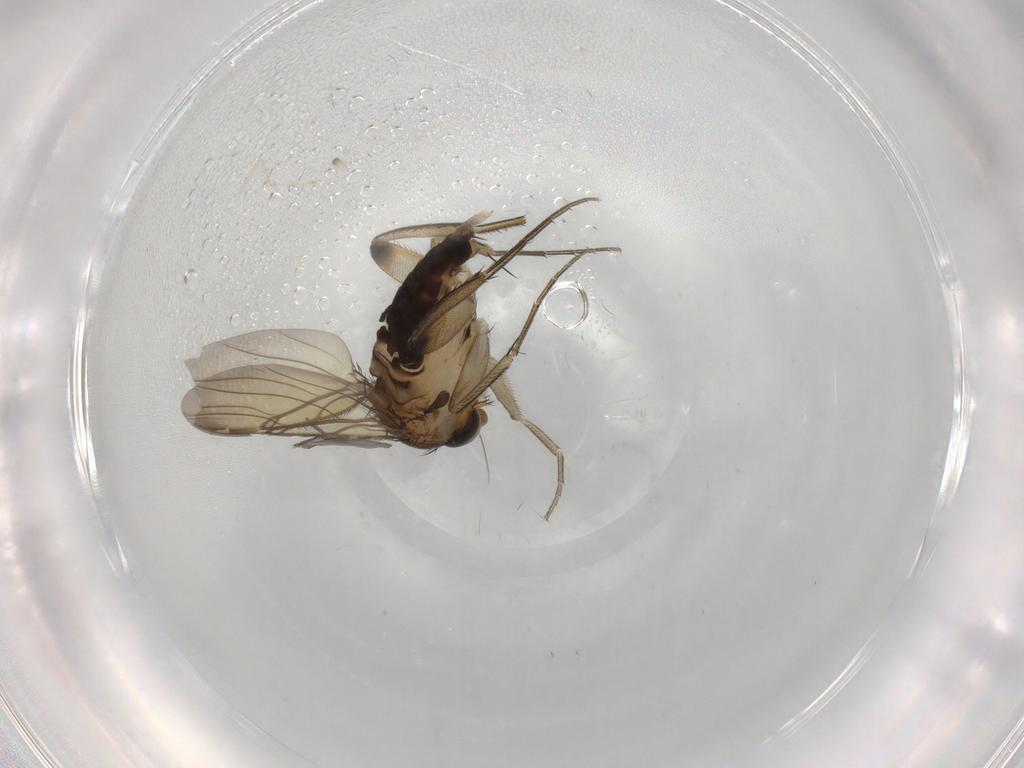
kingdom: Animalia
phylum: Arthropoda
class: Insecta
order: Diptera
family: Phoridae
